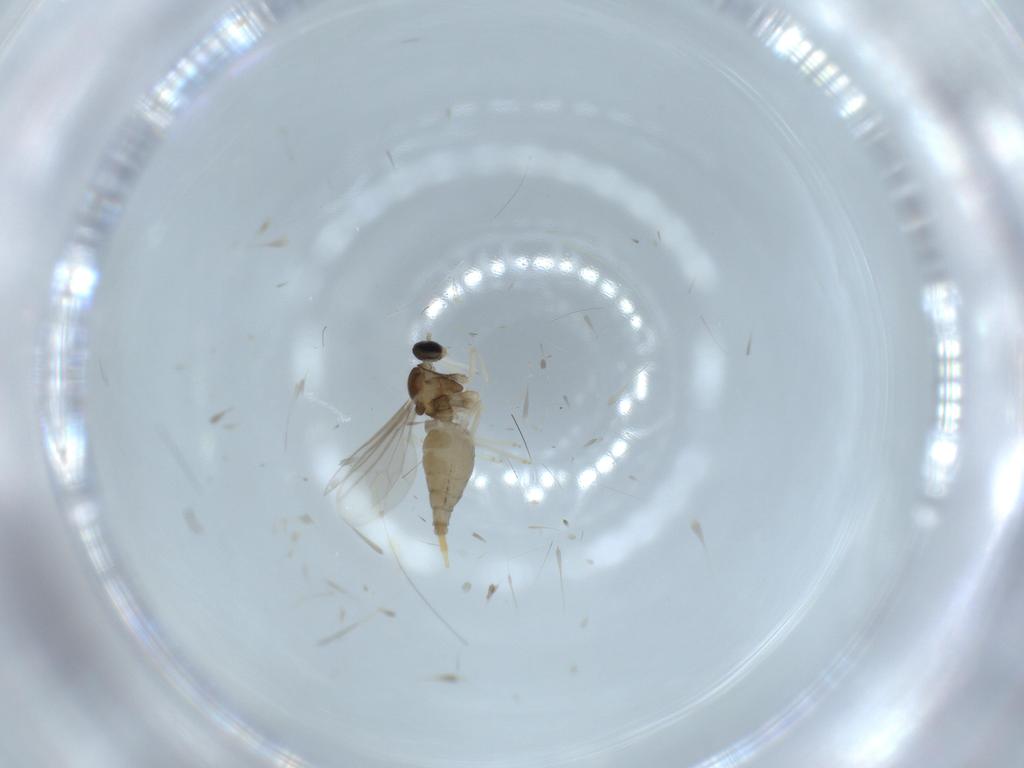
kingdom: Animalia
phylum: Arthropoda
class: Insecta
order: Diptera
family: Cecidomyiidae
